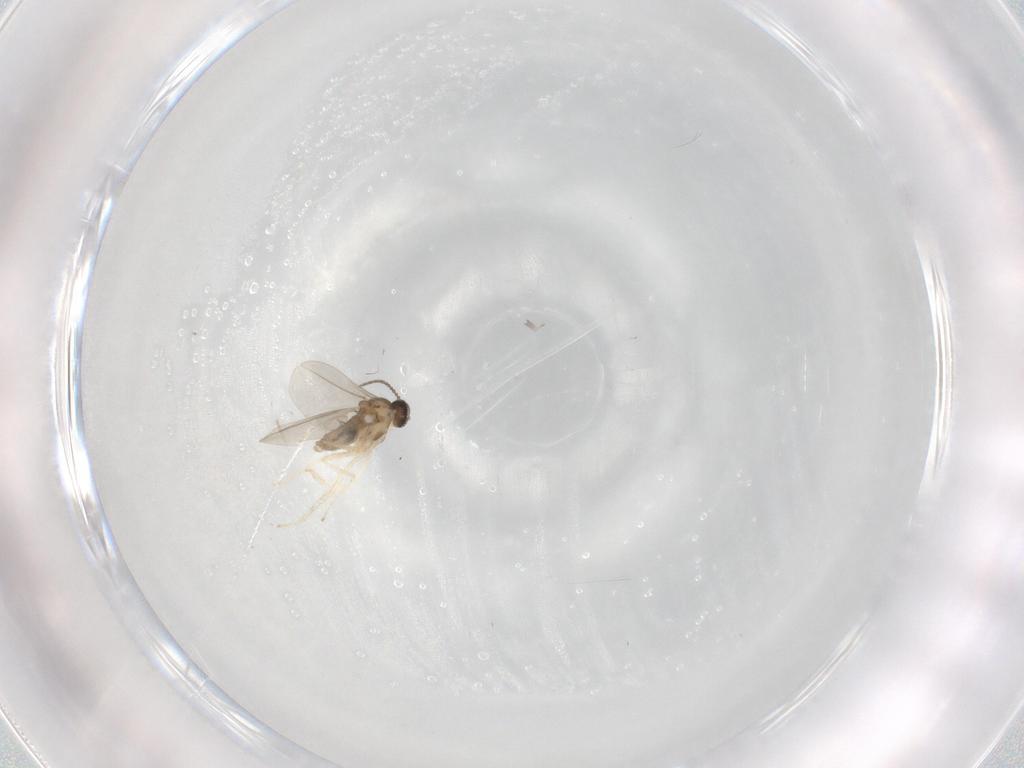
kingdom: Animalia
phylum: Arthropoda
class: Insecta
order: Diptera
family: Cecidomyiidae
